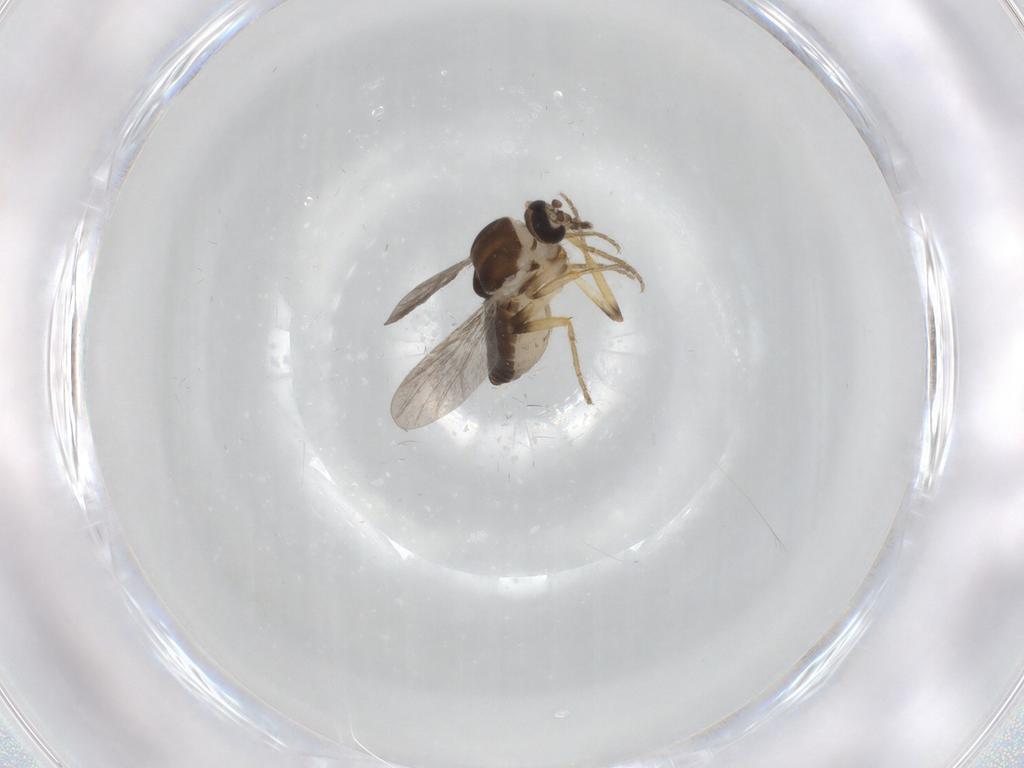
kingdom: Animalia
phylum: Arthropoda
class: Insecta
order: Diptera
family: Ceratopogonidae
